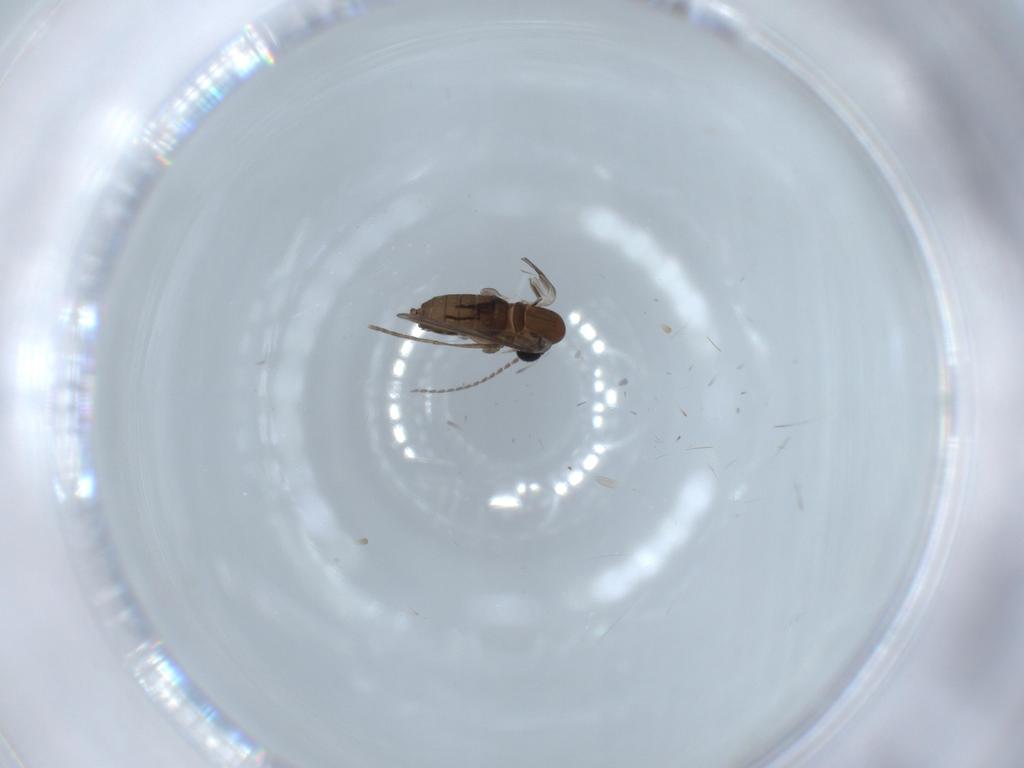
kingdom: Animalia
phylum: Arthropoda
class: Insecta
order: Diptera
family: Psychodidae
